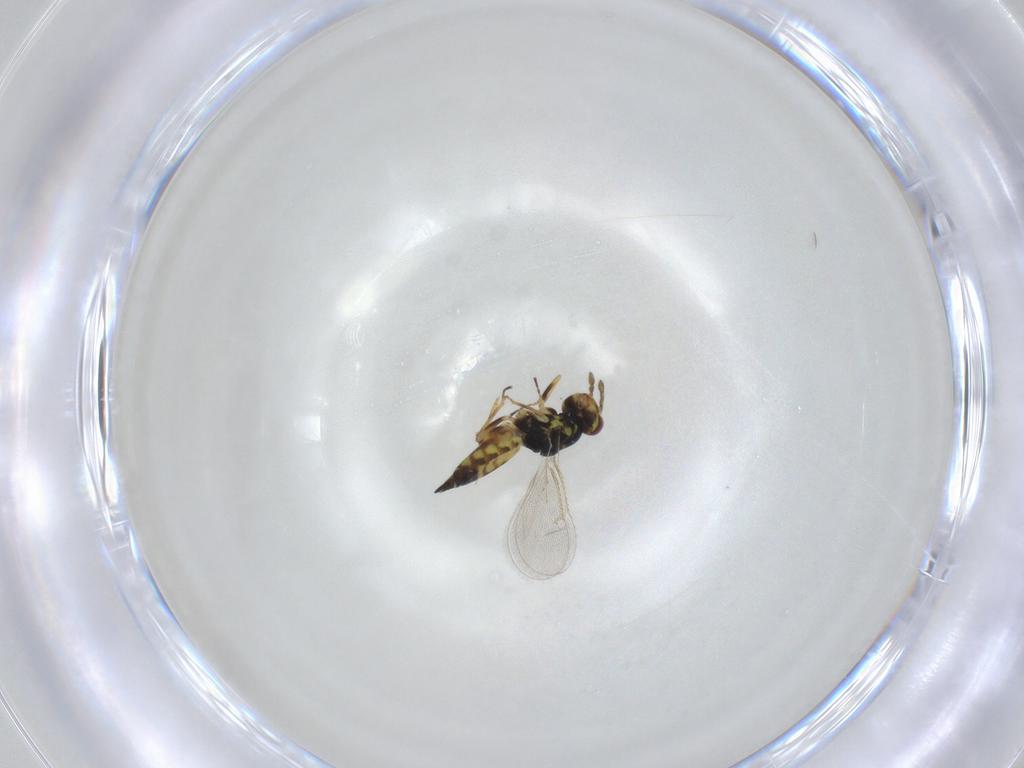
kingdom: Animalia
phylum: Arthropoda
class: Insecta
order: Hymenoptera
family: Eulophidae
